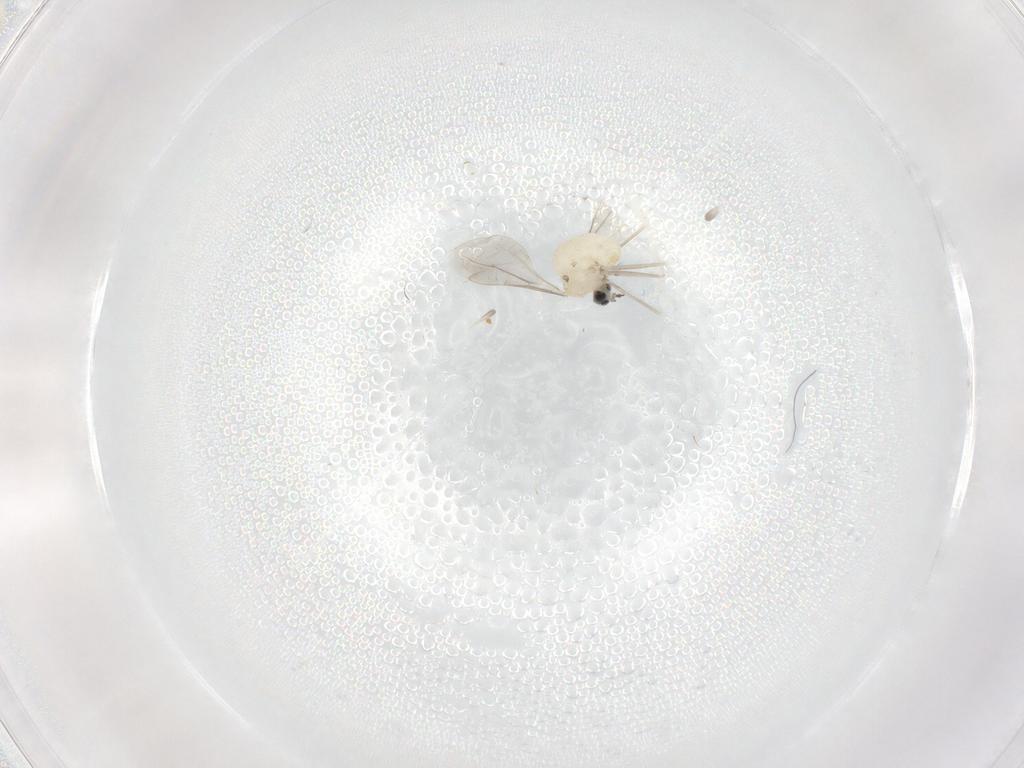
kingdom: Animalia
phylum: Arthropoda
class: Insecta
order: Diptera
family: Cecidomyiidae
